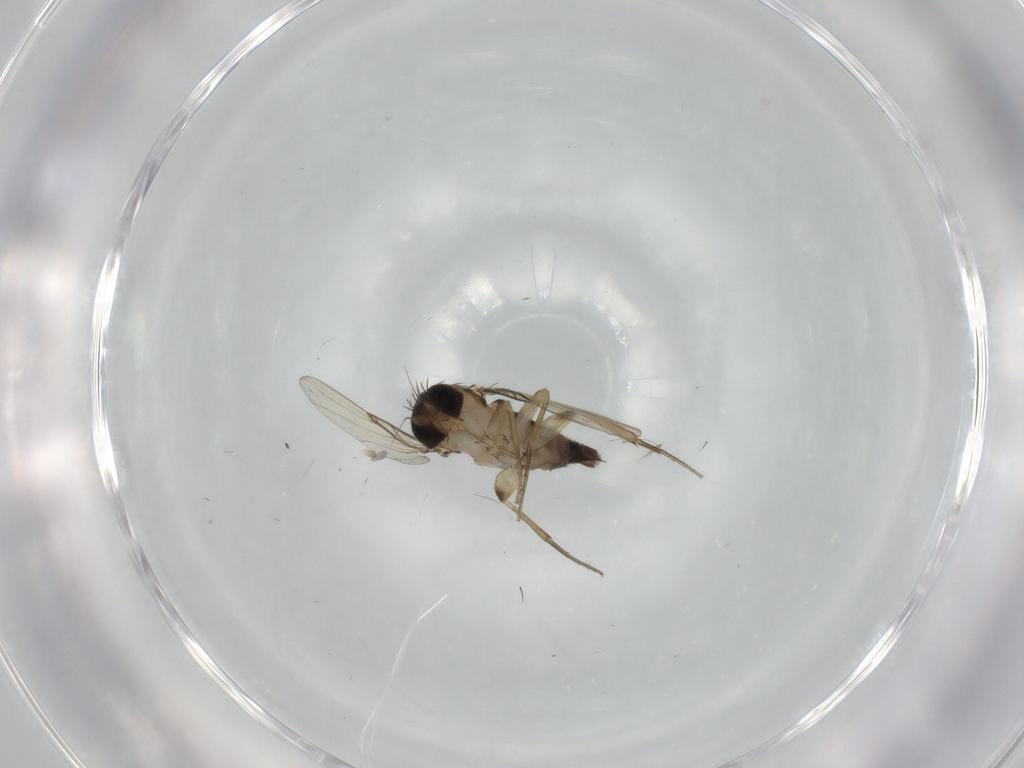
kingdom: Animalia
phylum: Arthropoda
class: Insecta
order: Diptera
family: Phoridae
